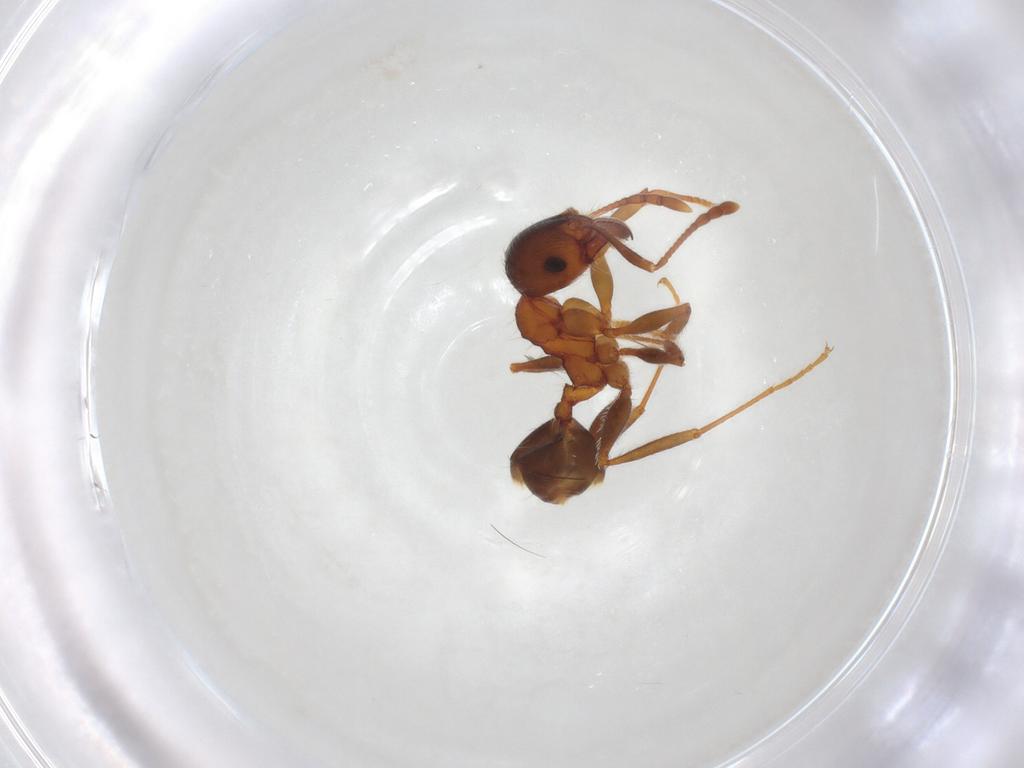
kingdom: Animalia
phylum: Arthropoda
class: Insecta
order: Hymenoptera
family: Formicidae
